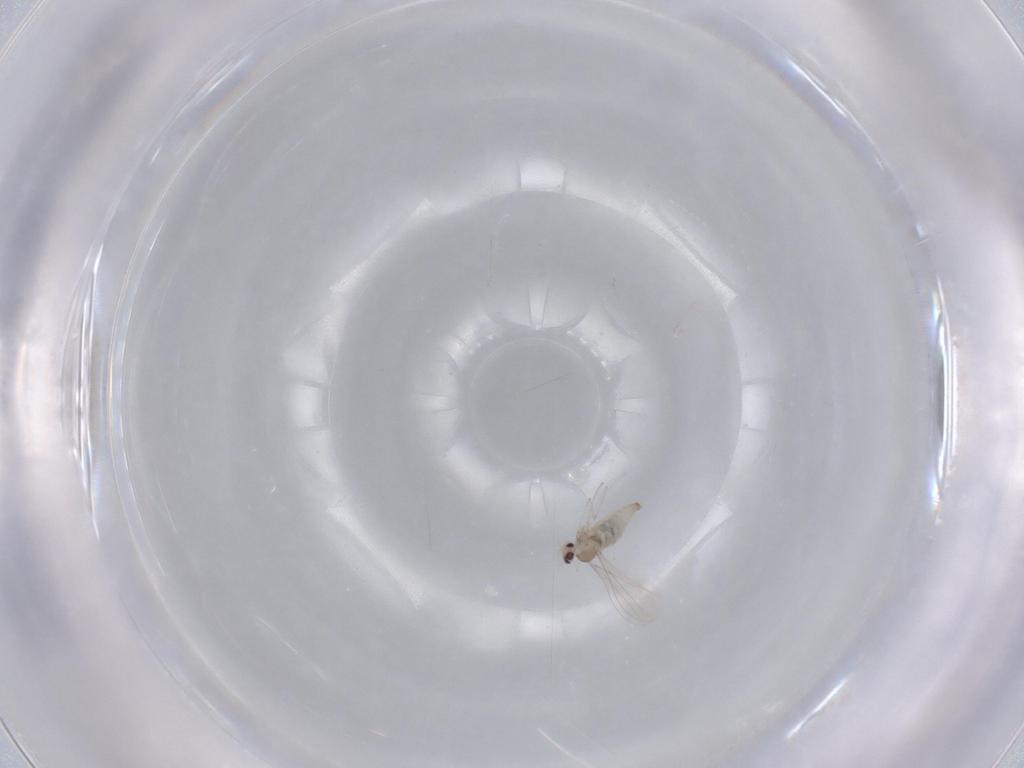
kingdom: Animalia
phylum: Arthropoda
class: Insecta
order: Diptera
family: Cecidomyiidae
